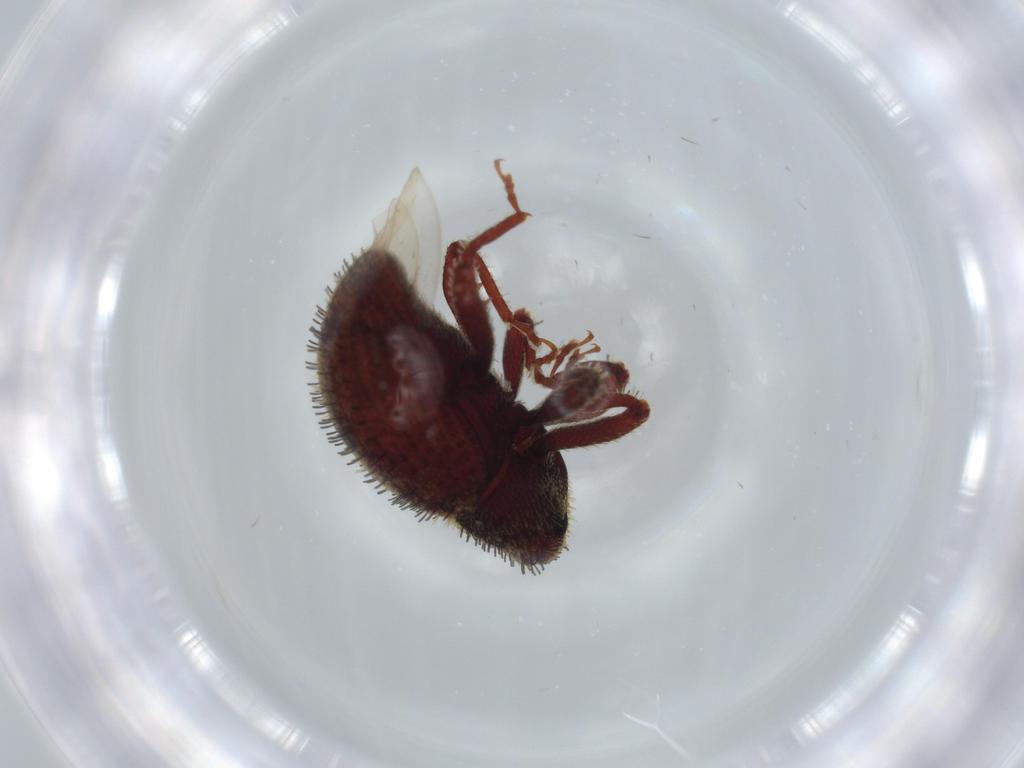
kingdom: Animalia
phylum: Arthropoda
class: Insecta
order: Coleoptera
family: Curculionidae
